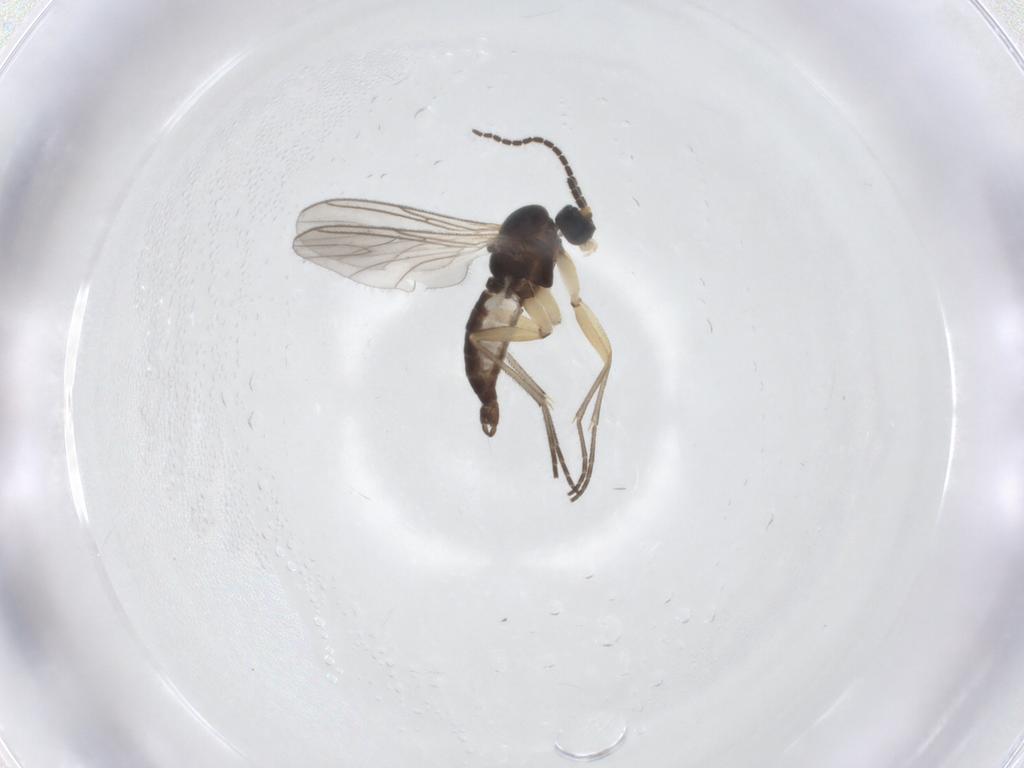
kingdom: Animalia
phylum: Arthropoda
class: Insecta
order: Diptera
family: Sciaridae
